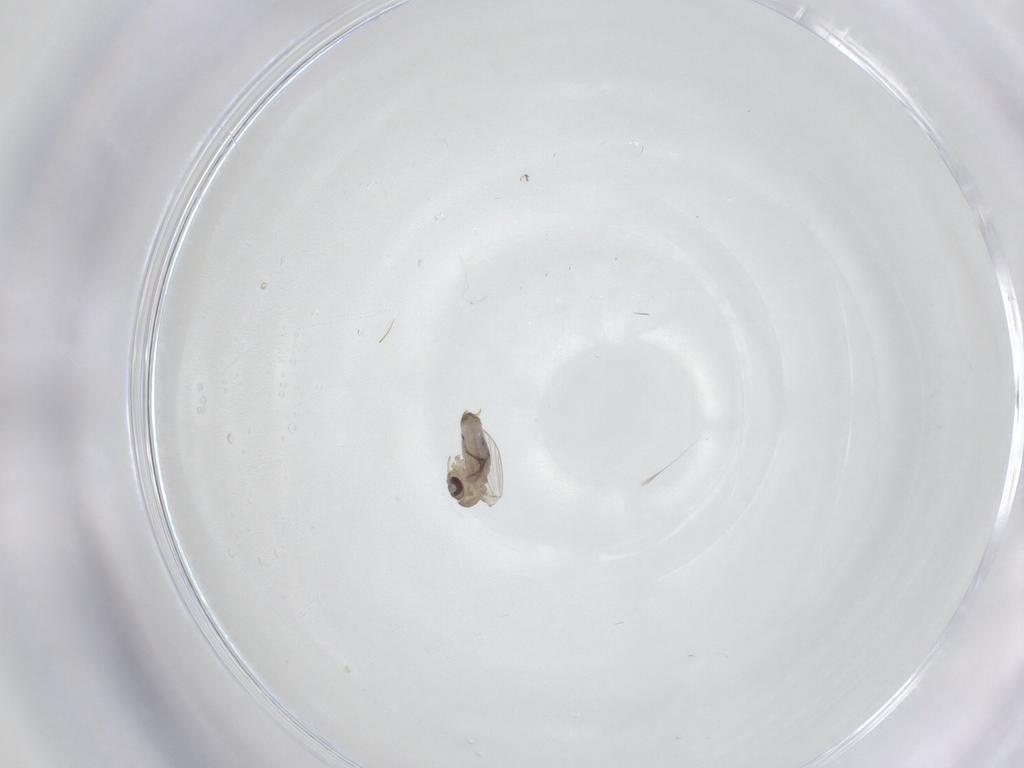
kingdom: Animalia
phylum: Arthropoda
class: Insecta
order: Diptera
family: Psychodidae
